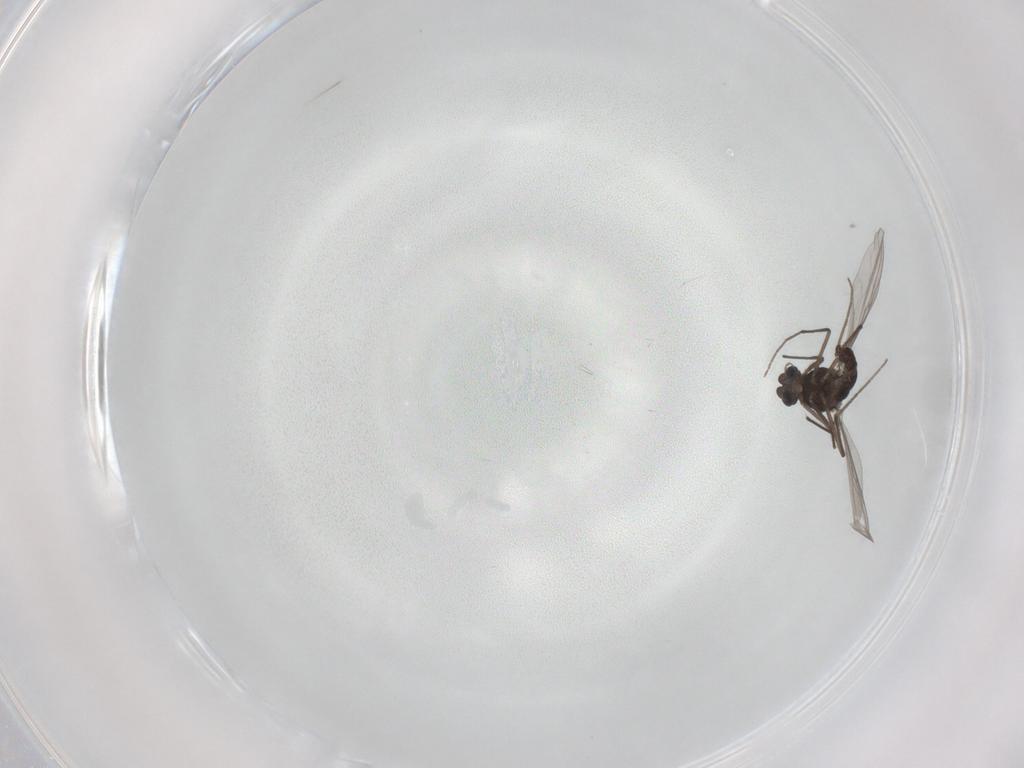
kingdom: Animalia
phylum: Arthropoda
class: Insecta
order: Diptera
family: Chironomidae
